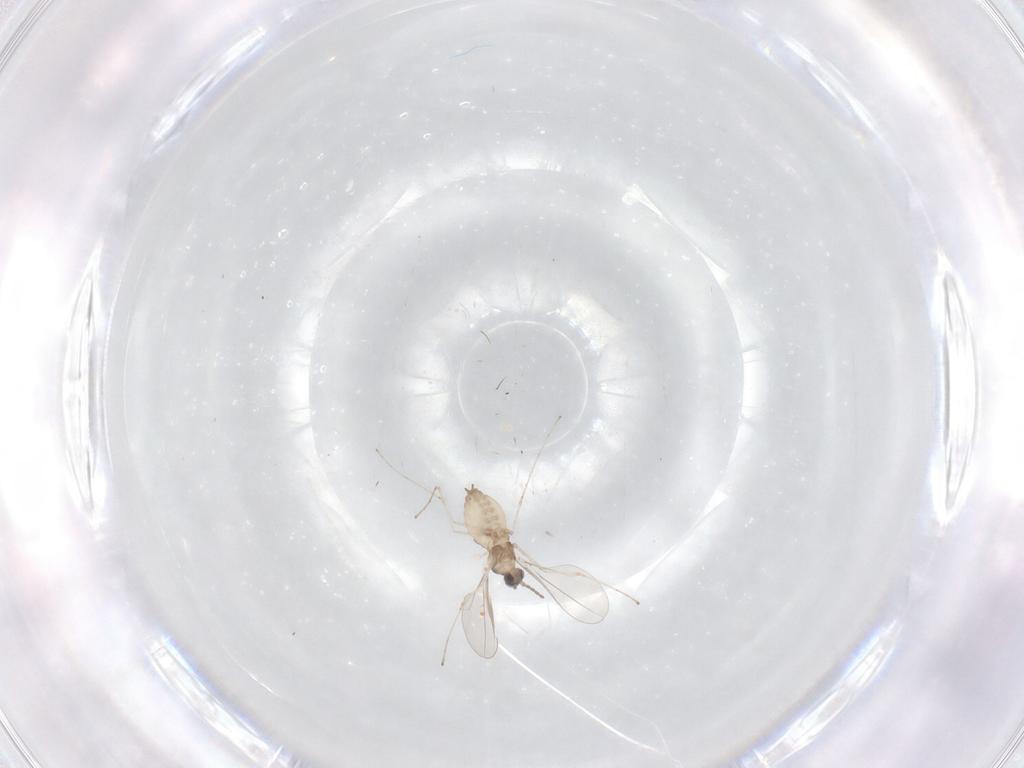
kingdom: Animalia
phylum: Arthropoda
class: Insecta
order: Diptera
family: Cecidomyiidae
